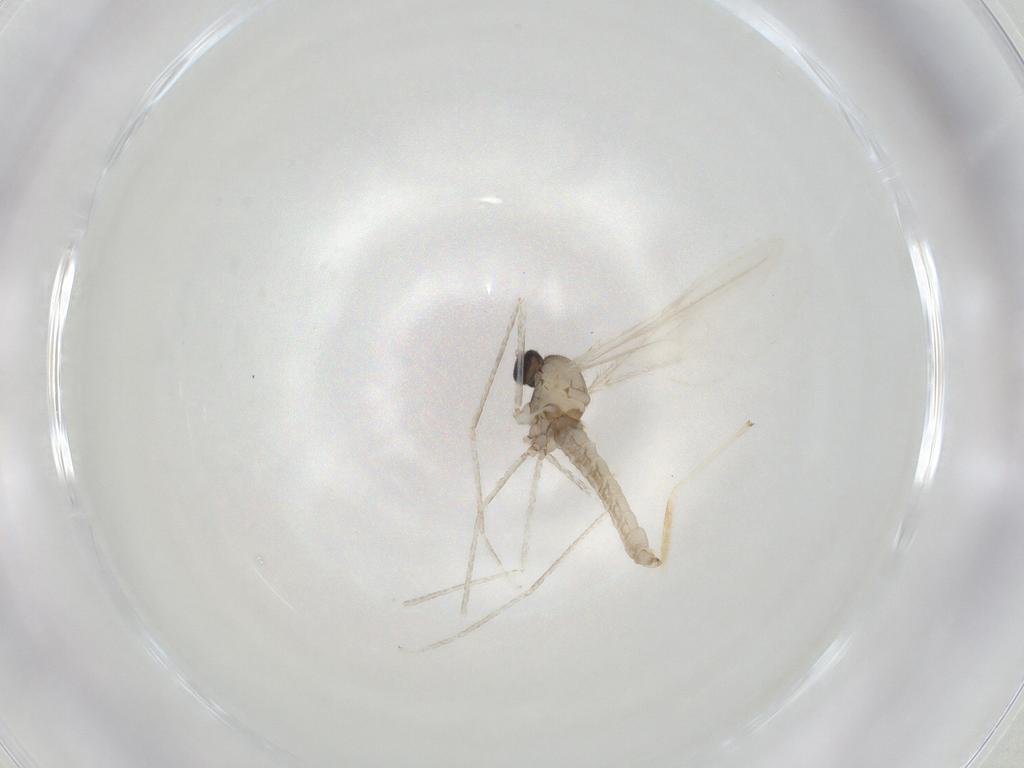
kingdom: Animalia
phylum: Arthropoda
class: Insecta
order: Diptera
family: Cecidomyiidae
